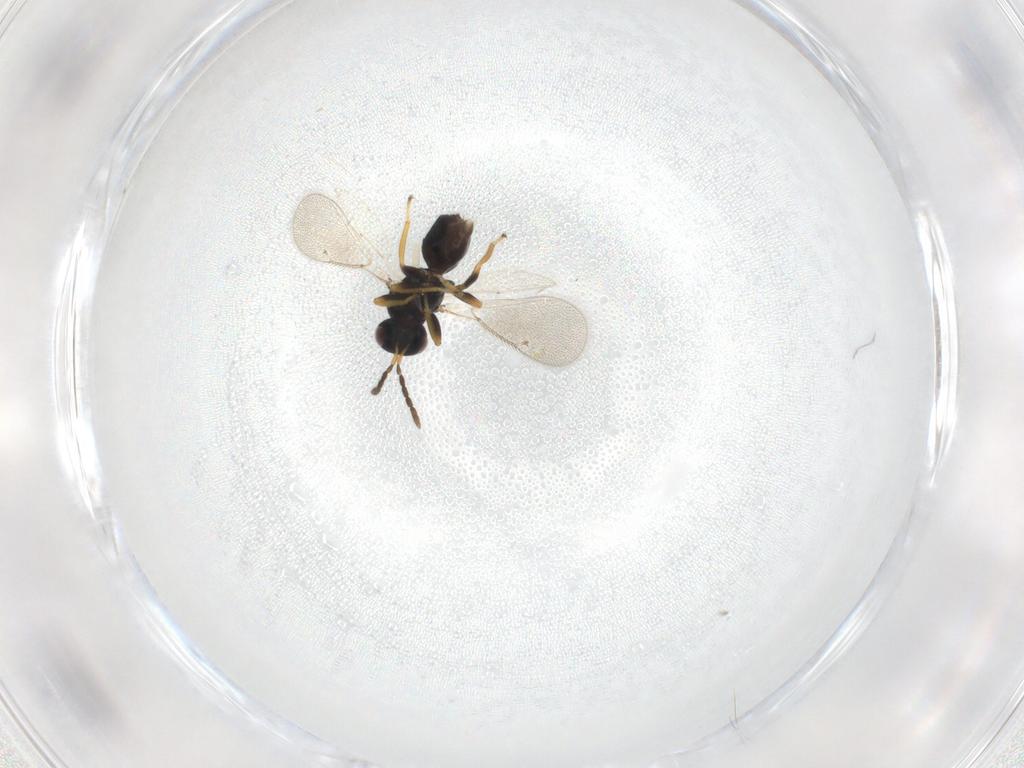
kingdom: Animalia
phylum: Arthropoda
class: Insecta
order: Hymenoptera
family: Eulophidae
